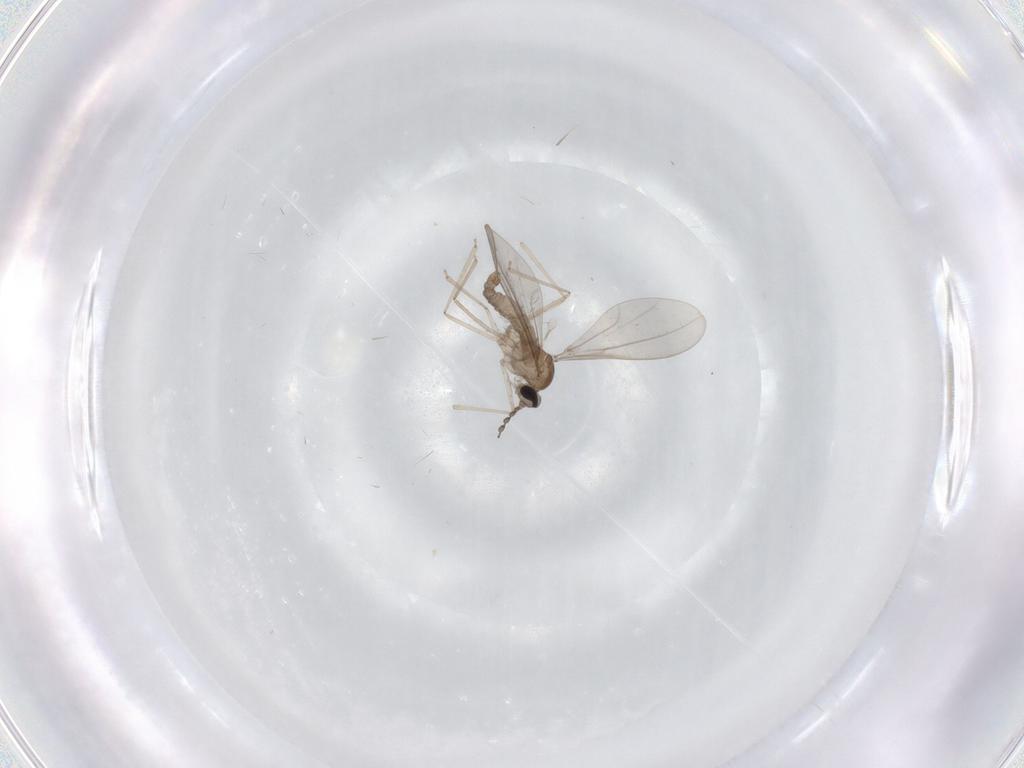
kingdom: Animalia
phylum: Arthropoda
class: Insecta
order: Diptera
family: Cecidomyiidae
